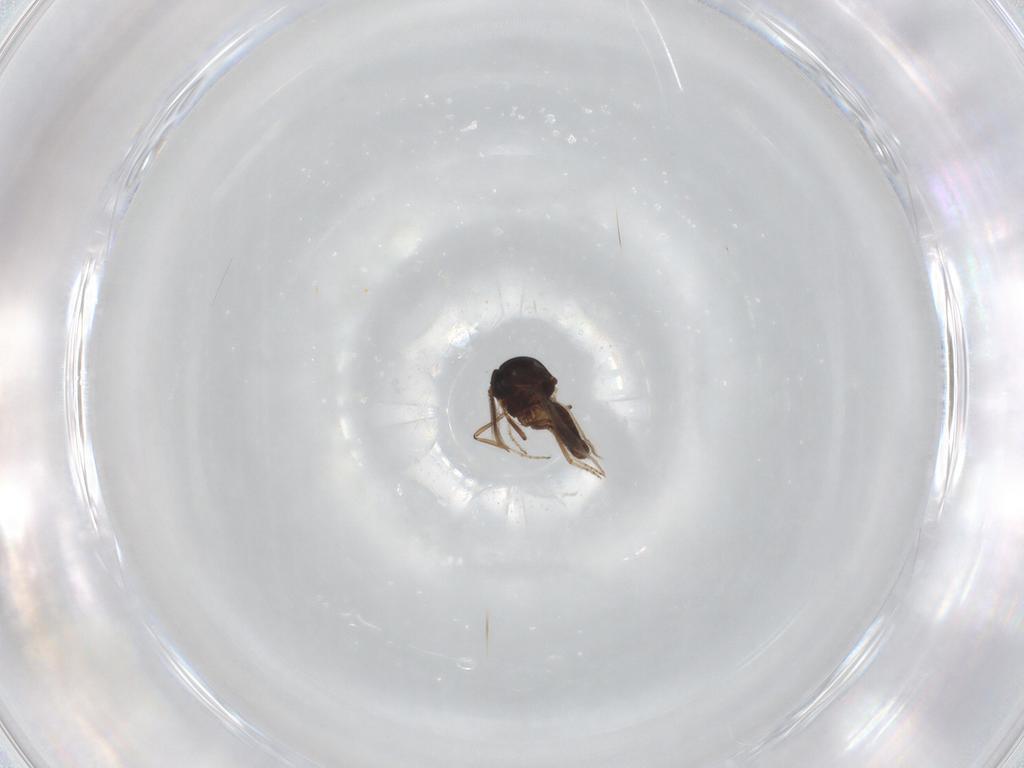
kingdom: Animalia
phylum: Arthropoda
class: Insecta
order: Diptera
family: Ceratopogonidae
